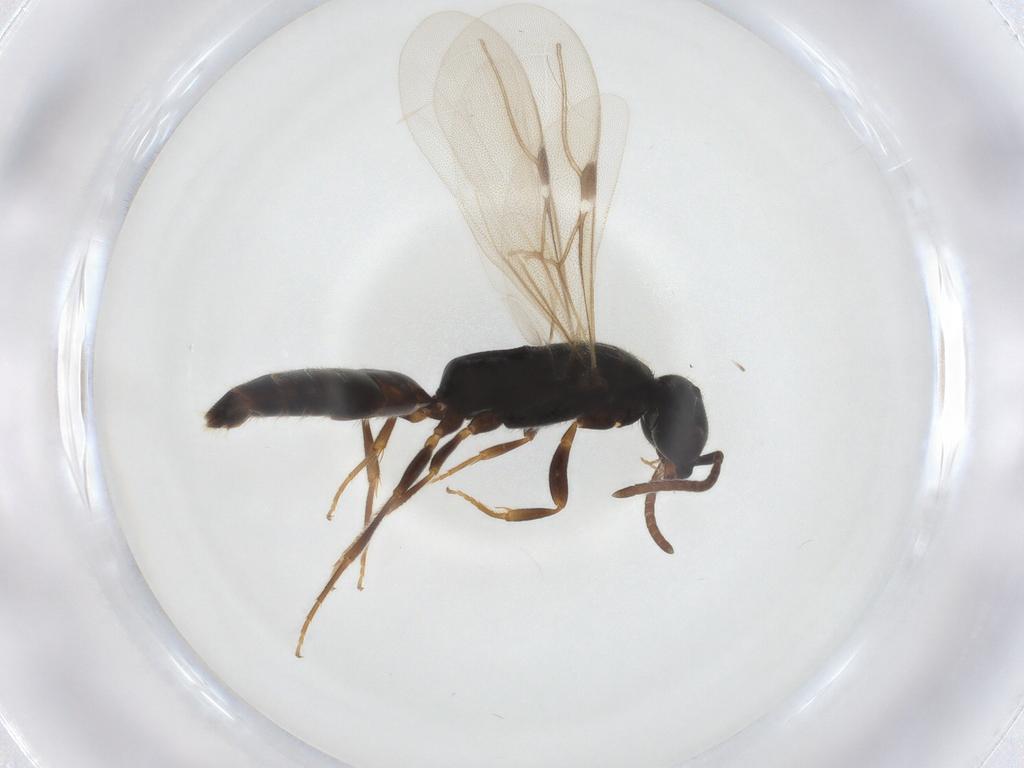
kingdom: Animalia
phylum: Arthropoda
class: Insecta
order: Hymenoptera
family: Bethylidae
